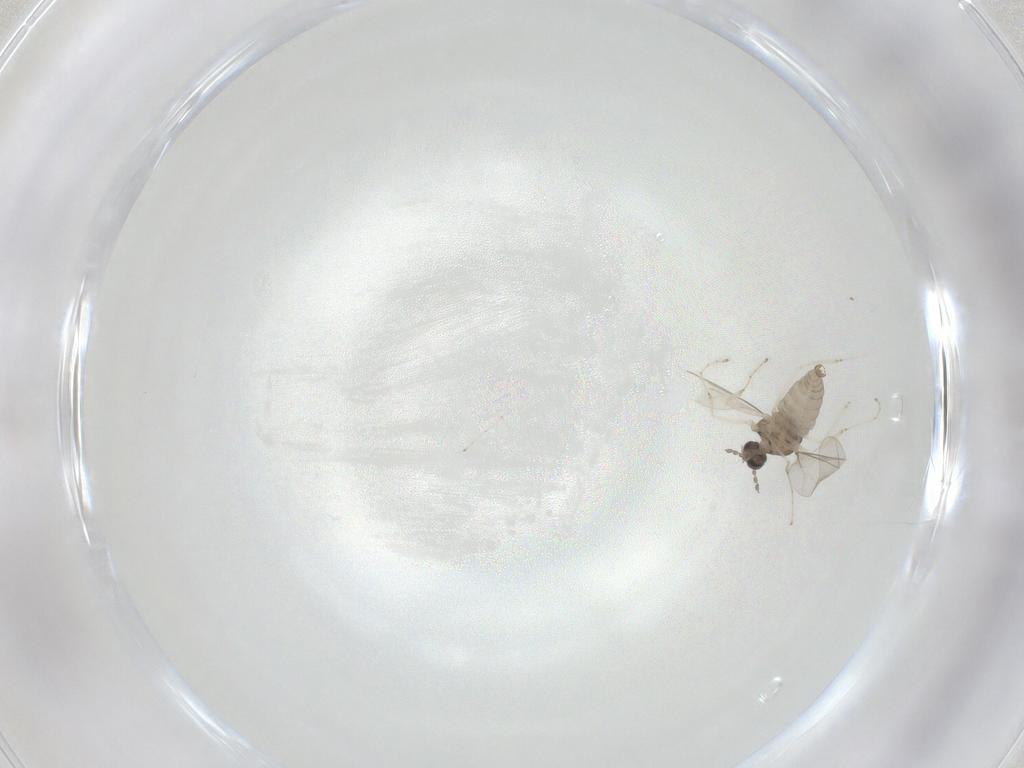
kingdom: Animalia
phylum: Arthropoda
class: Insecta
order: Diptera
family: Cecidomyiidae
